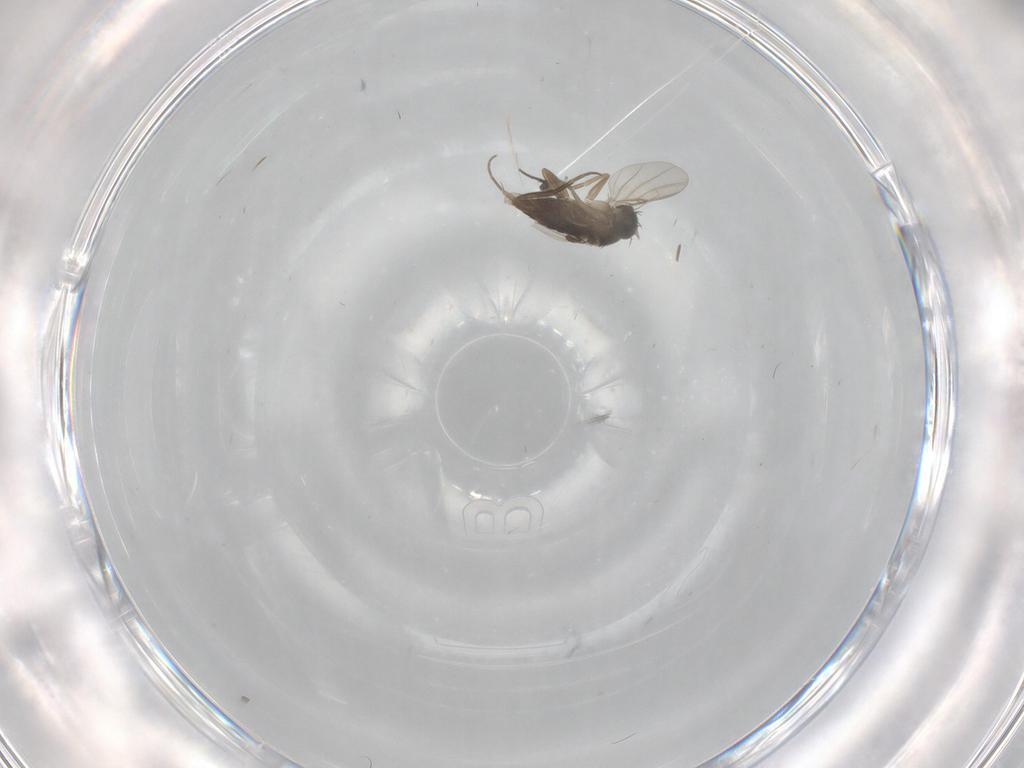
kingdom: Animalia
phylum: Arthropoda
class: Insecta
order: Diptera
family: Phoridae
